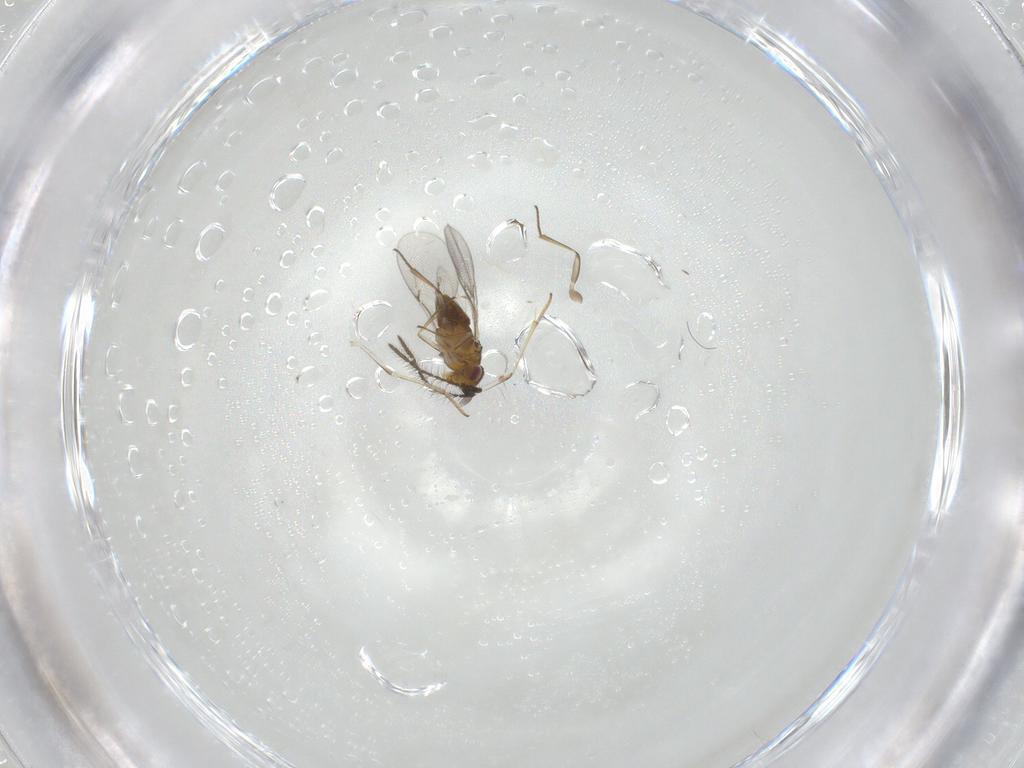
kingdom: Animalia
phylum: Arthropoda
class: Insecta
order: Hymenoptera
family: Encyrtidae
